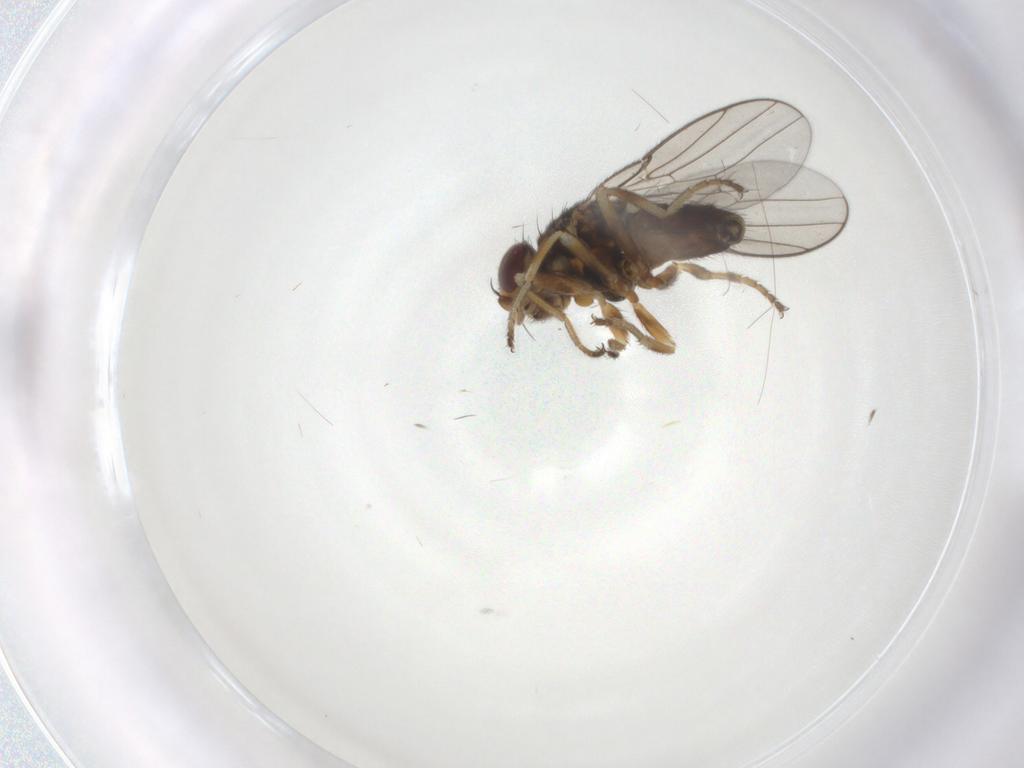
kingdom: Animalia
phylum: Arthropoda
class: Insecta
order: Diptera
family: Chloropidae
